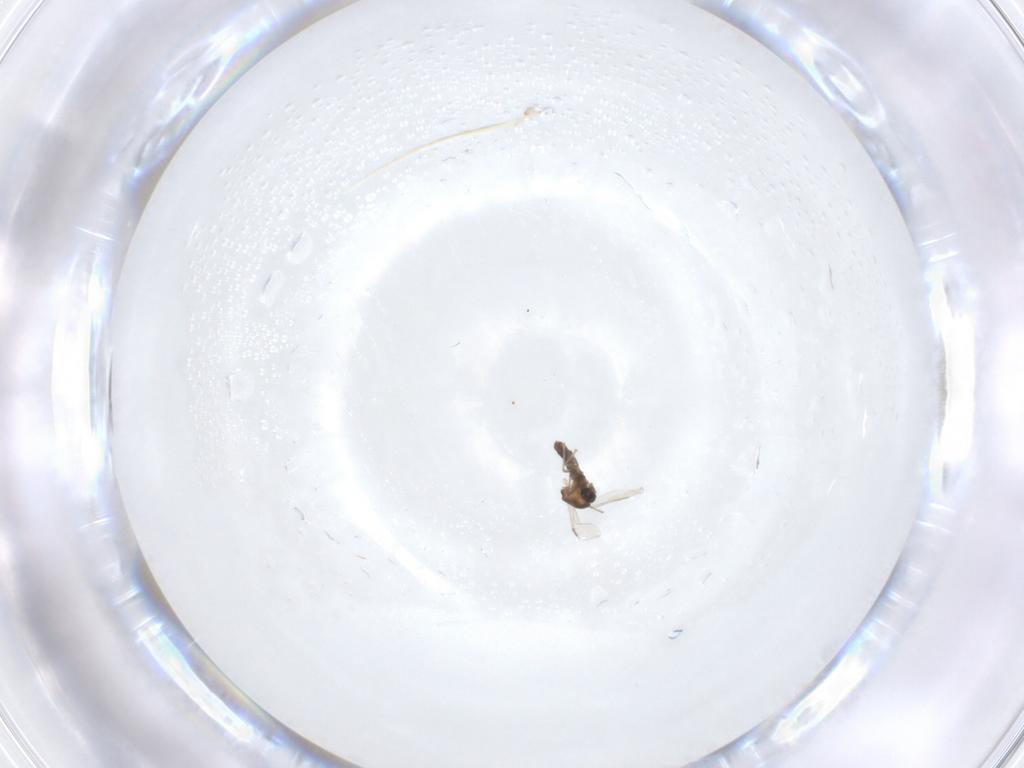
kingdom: Animalia
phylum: Arthropoda
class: Insecta
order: Diptera
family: Chironomidae
